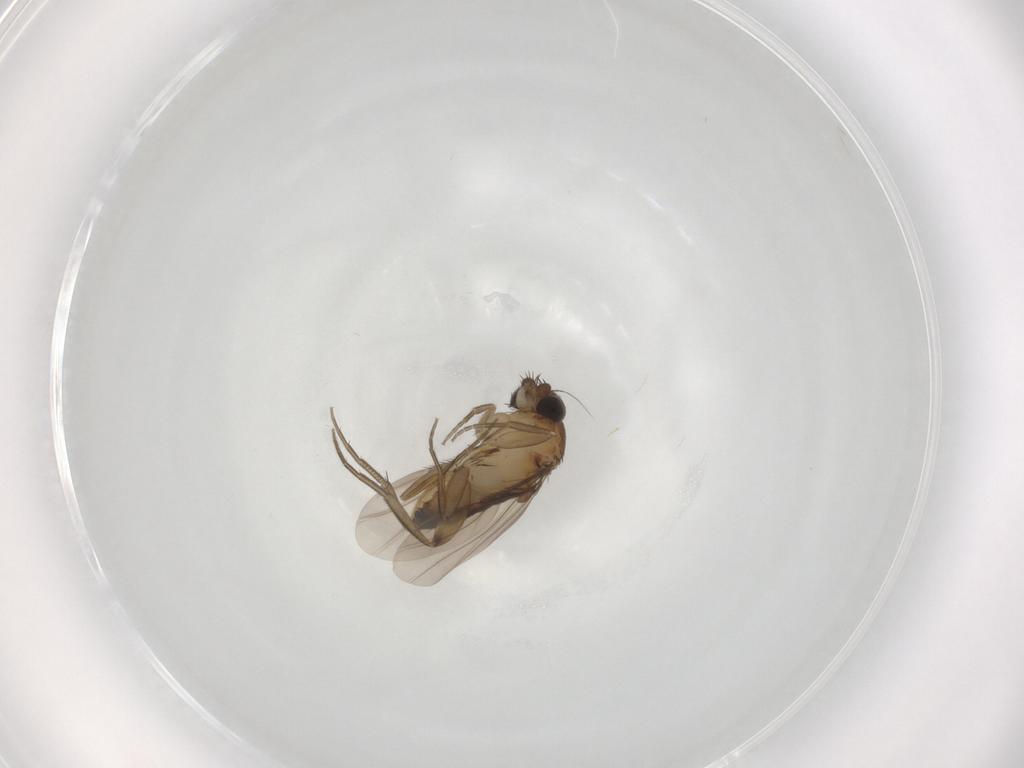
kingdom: Animalia
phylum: Arthropoda
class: Insecta
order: Diptera
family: Phoridae
